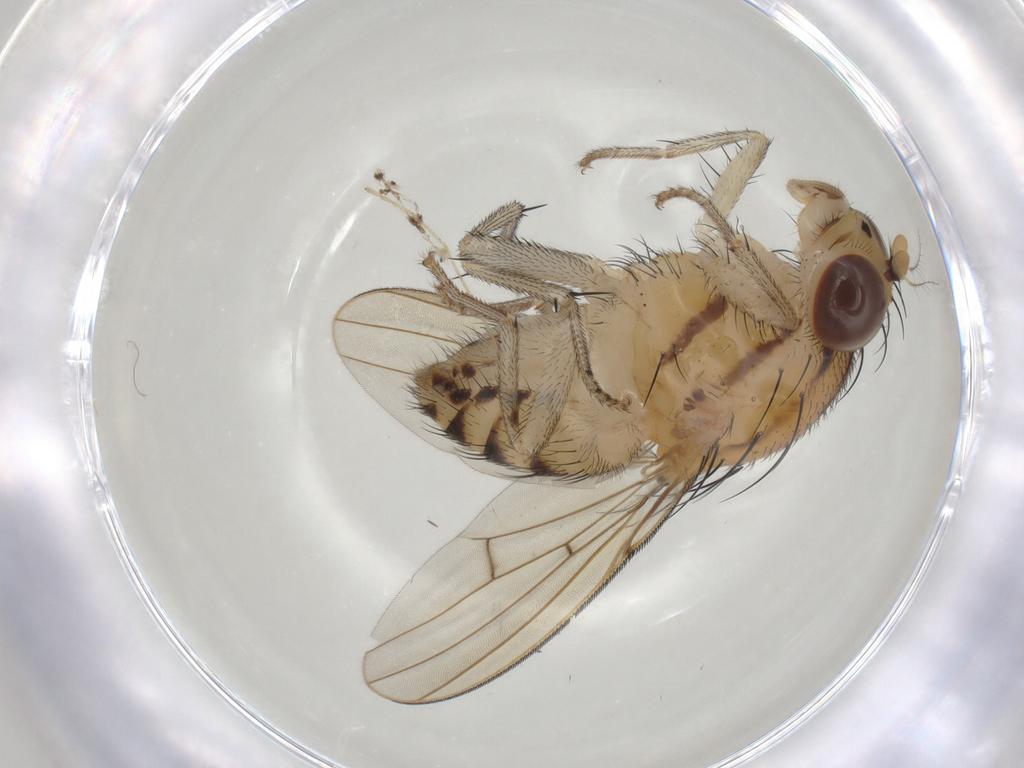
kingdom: Animalia
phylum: Arthropoda
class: Insecta
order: Diptera
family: Lauxaniidae
